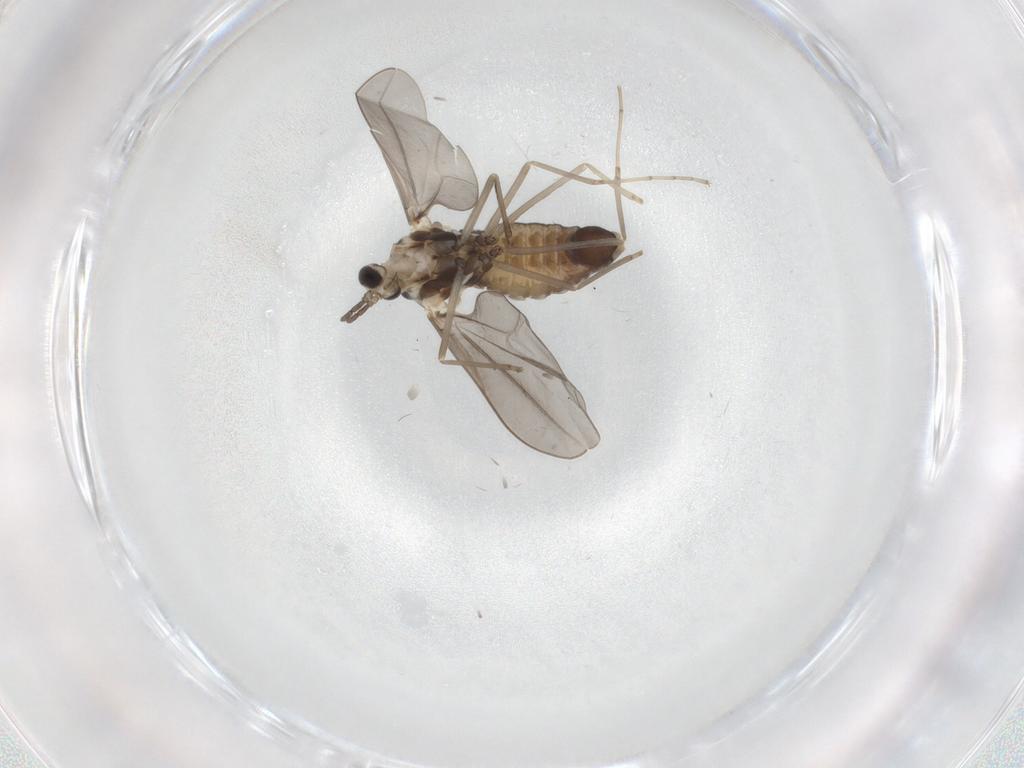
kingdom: Animalia
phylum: Arthropoda
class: Insecta
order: Diptera
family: Cecidomyiidae
